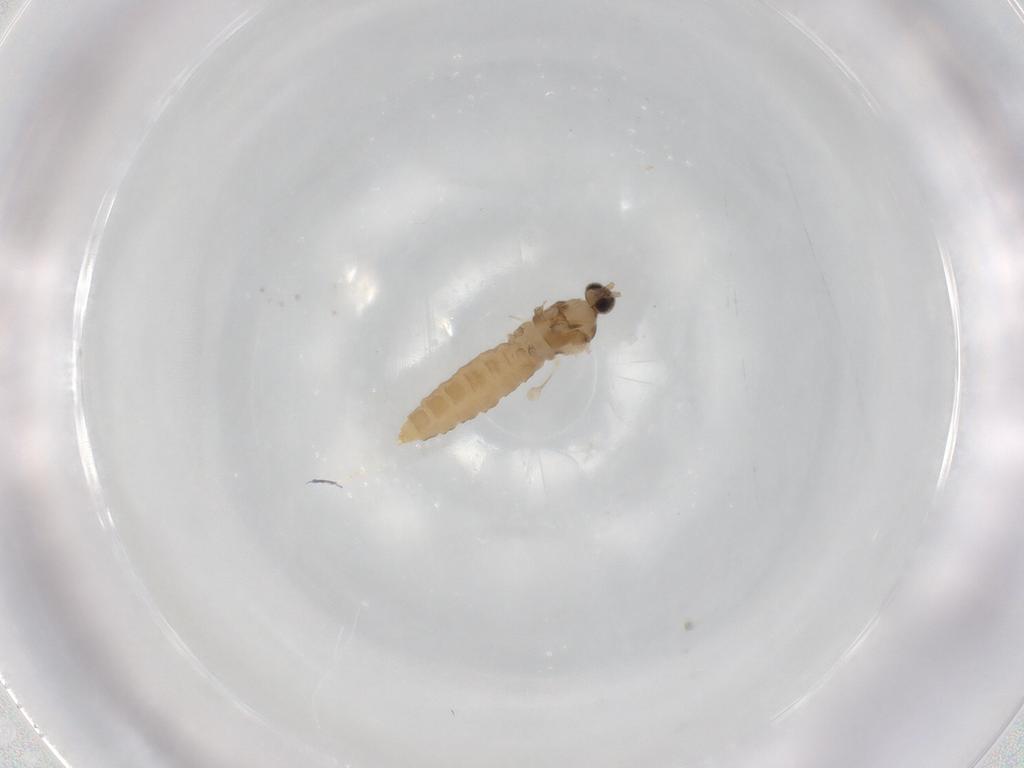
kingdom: Animalia
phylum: Arthropoda
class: Insecta
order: Diptera
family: Cecidomyiidae
